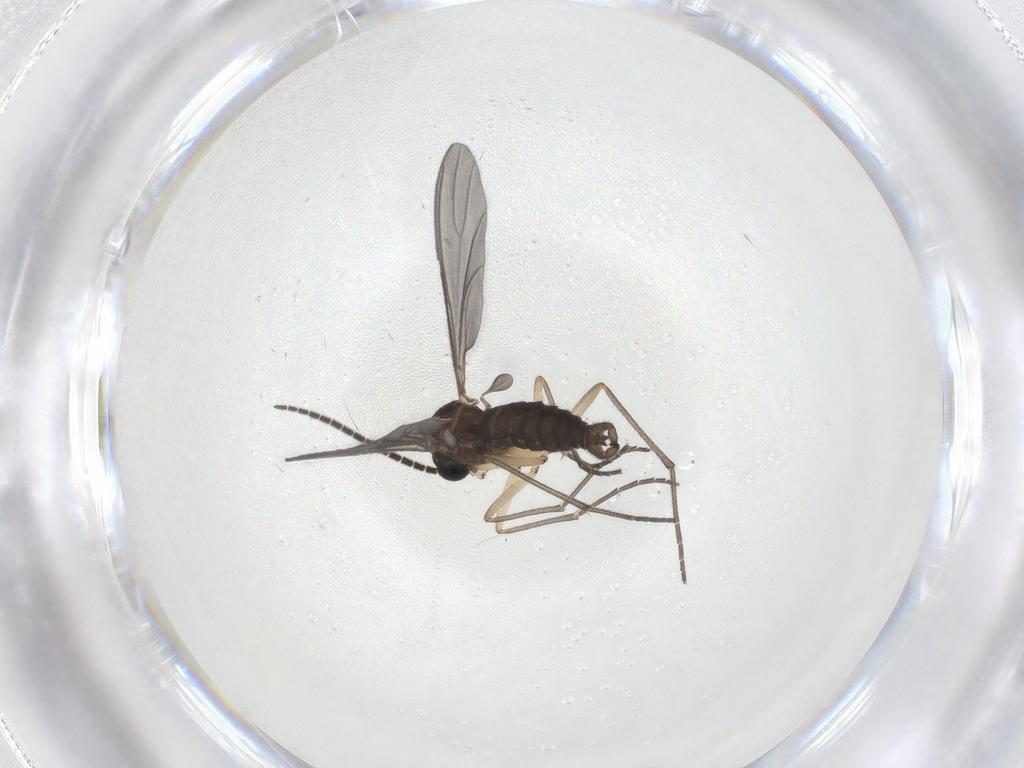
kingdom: Animalia
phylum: Arthropoda
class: Insecta
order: Diptera
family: Sciaridae
